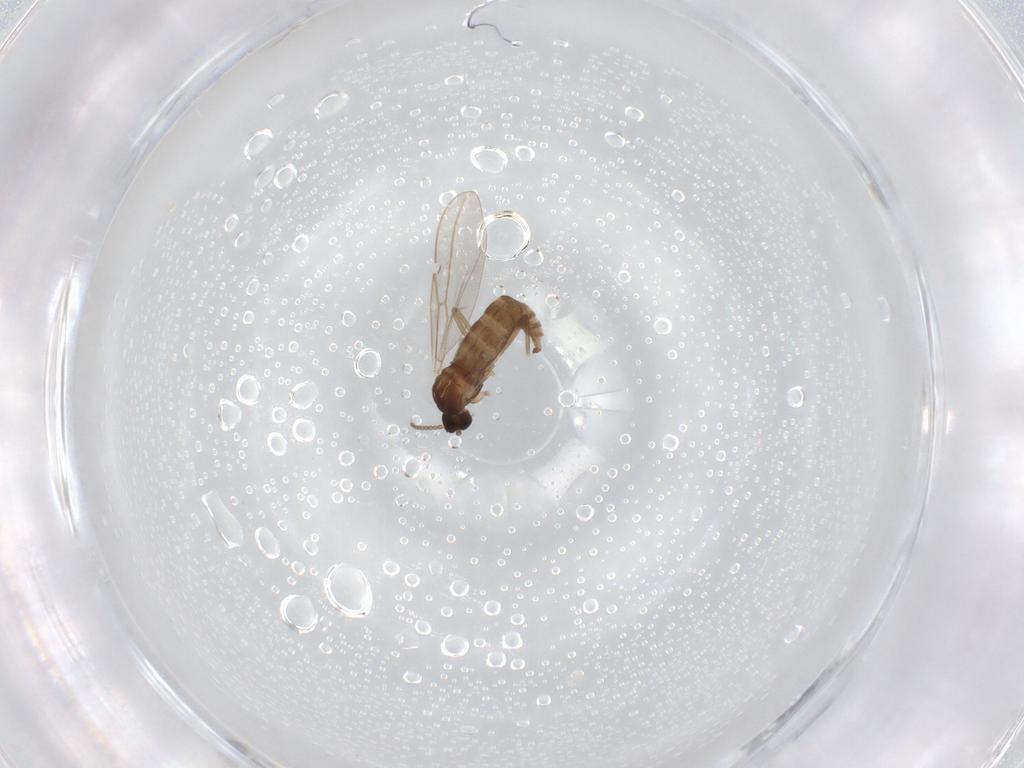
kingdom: Animalia
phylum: Arthropoda
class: Insecta
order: Diptera
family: Cecidomyiidae
